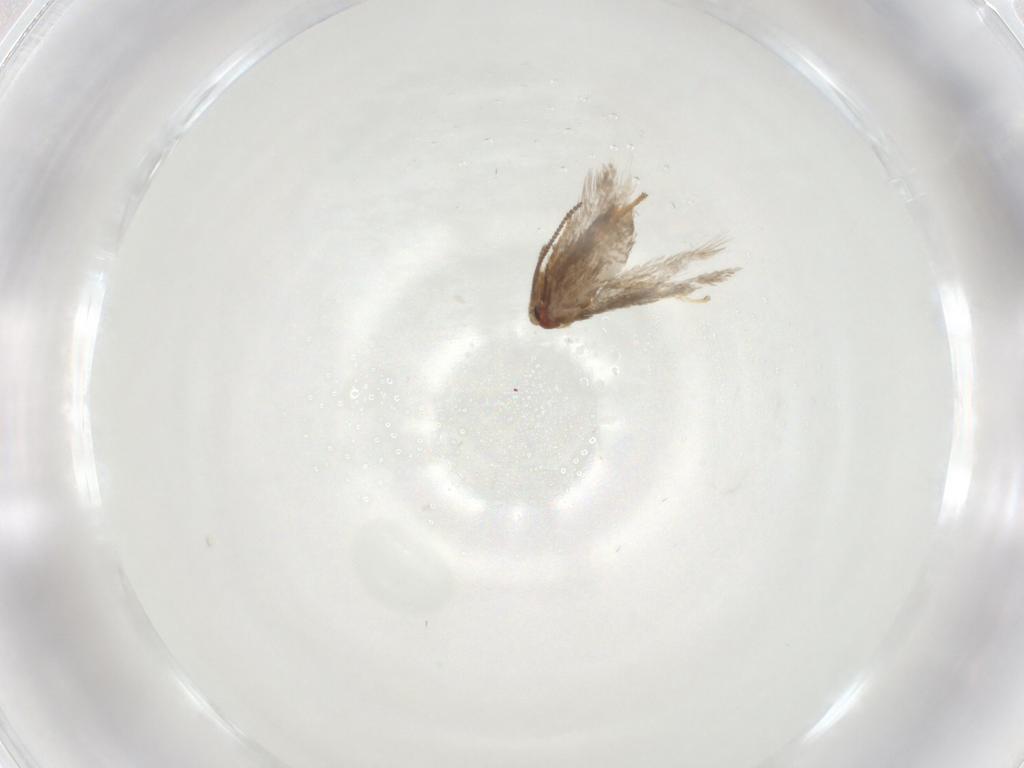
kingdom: Animalia
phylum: Arthropoda
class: Insecta
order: Lepidoptera
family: Nepticulidae
